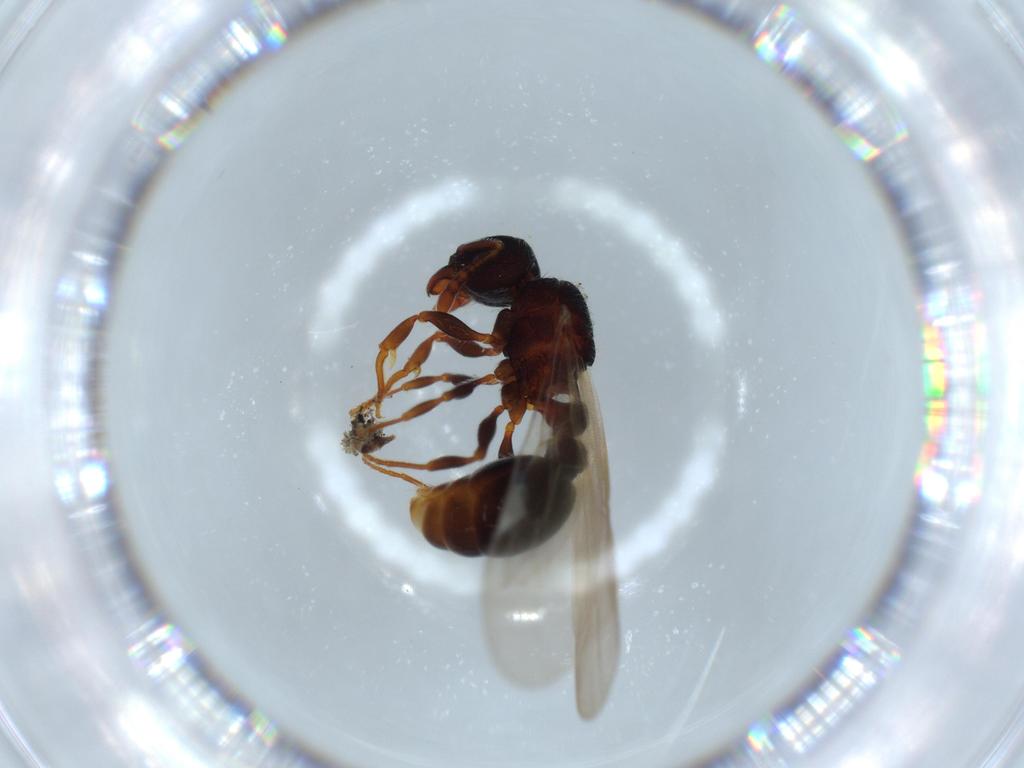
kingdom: Animalia
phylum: Arthropoda
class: Insecta
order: Hymenoptera
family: Formicidae
